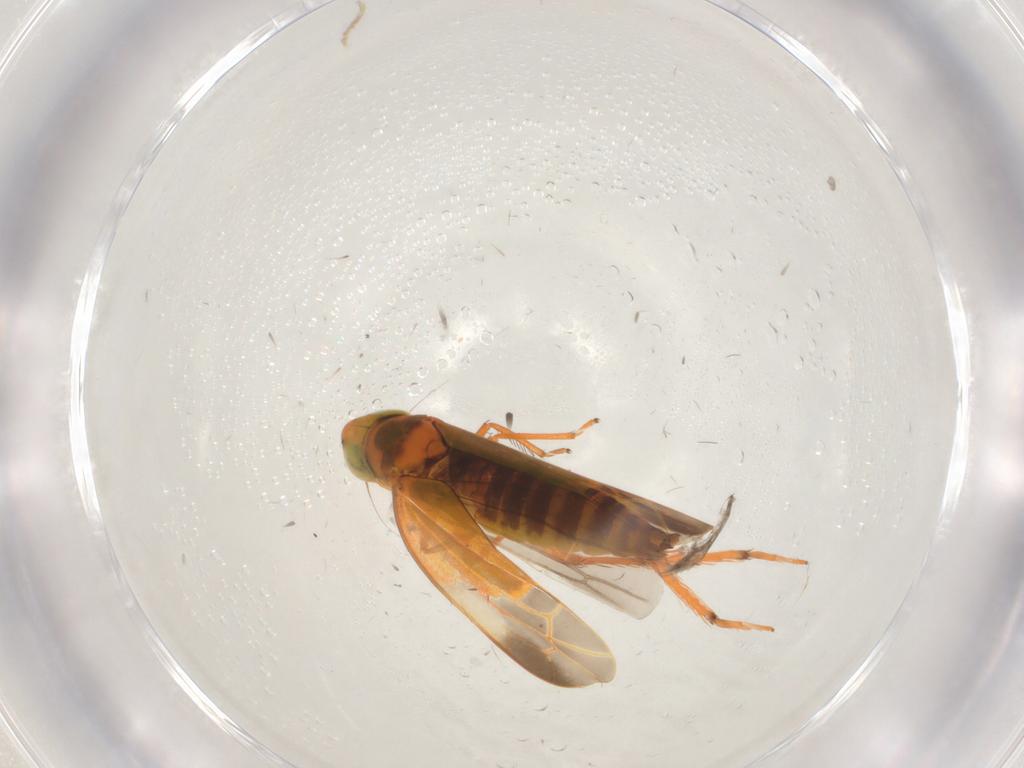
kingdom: Animalia
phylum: Arthropoda
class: Insecta
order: Hemiptera
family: Cicadellidae
